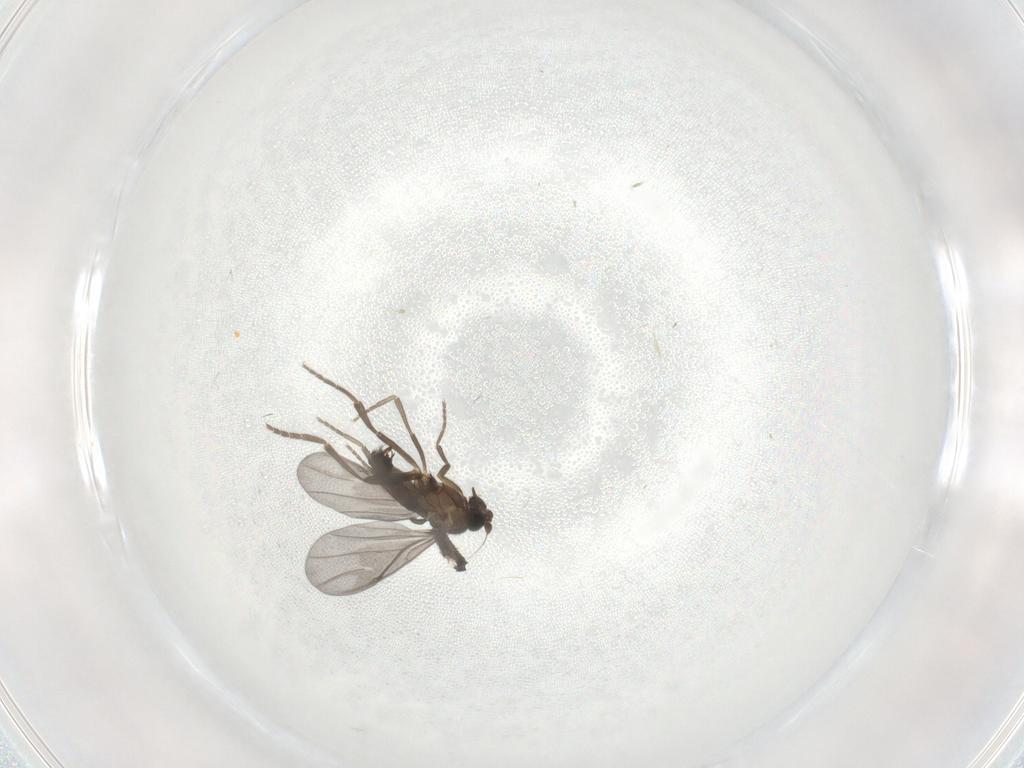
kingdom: Animalia
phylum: Arthropoda
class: Insecta
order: Diptera
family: Phoridae
